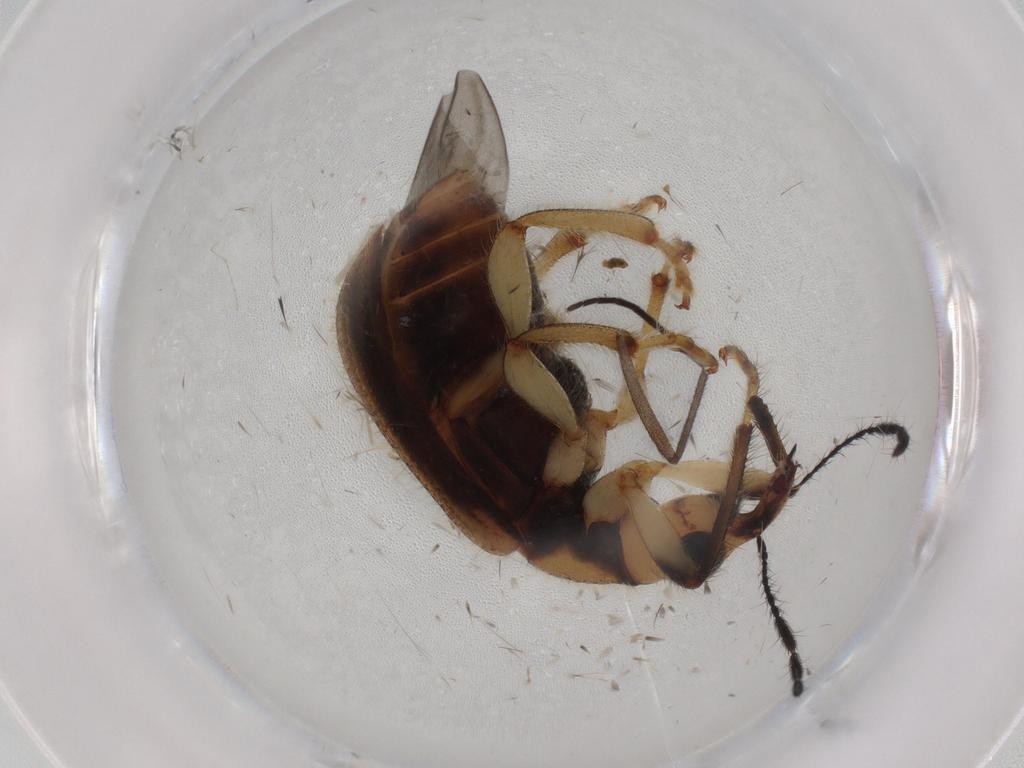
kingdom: Animalia
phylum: Arthropoda
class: Insecta
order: Coleoptera
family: Attelabidae
